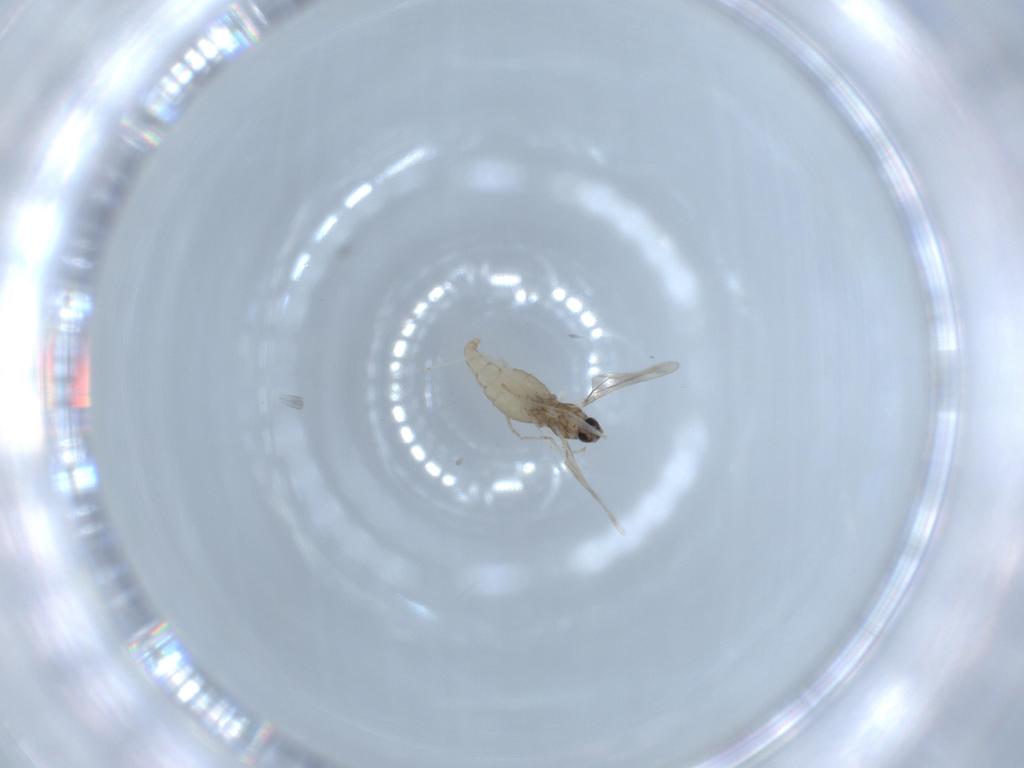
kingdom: Animalia
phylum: Arthropoda
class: Insecta
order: Diptera
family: Cecidomyiidae
